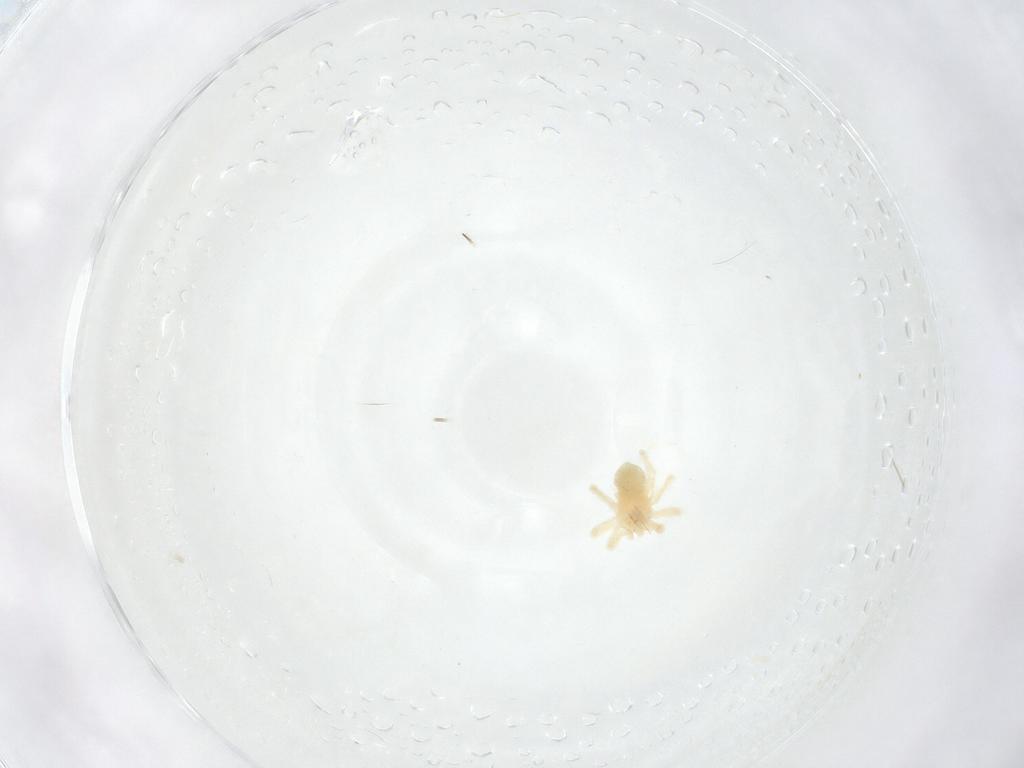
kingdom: Animalia
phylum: Arthropoda
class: Arachnida
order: Trombidiformes
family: Anystidae
